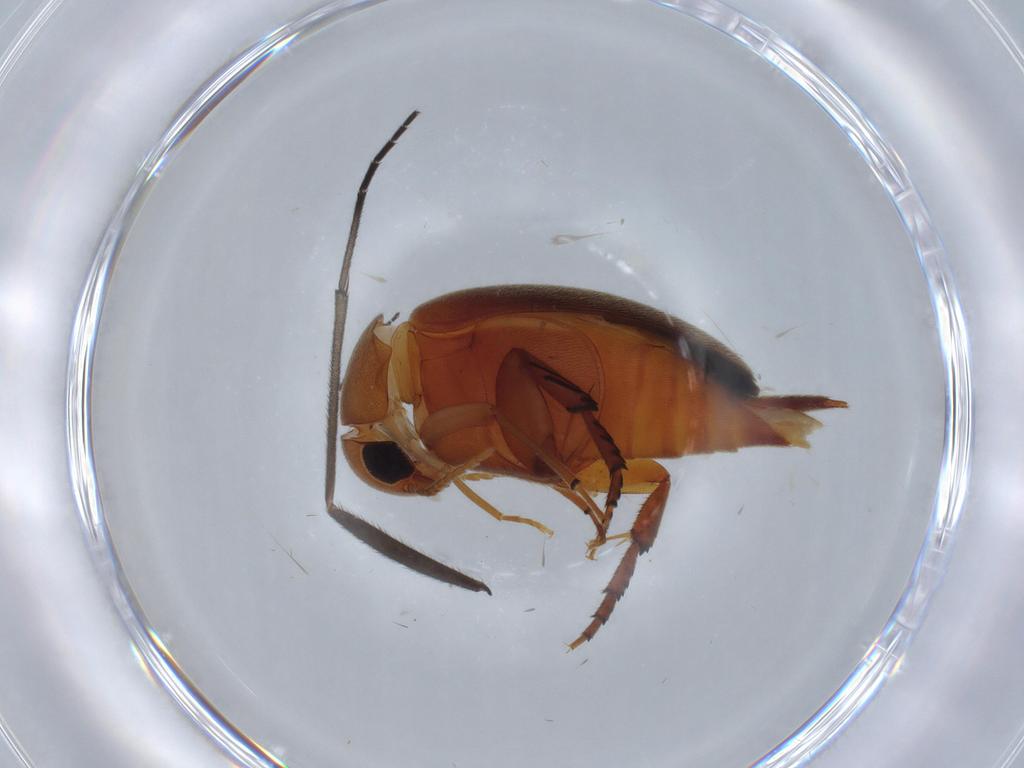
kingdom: Animalia
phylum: Arthropoda
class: Insecta
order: Coleoptera
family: Mordellidae
